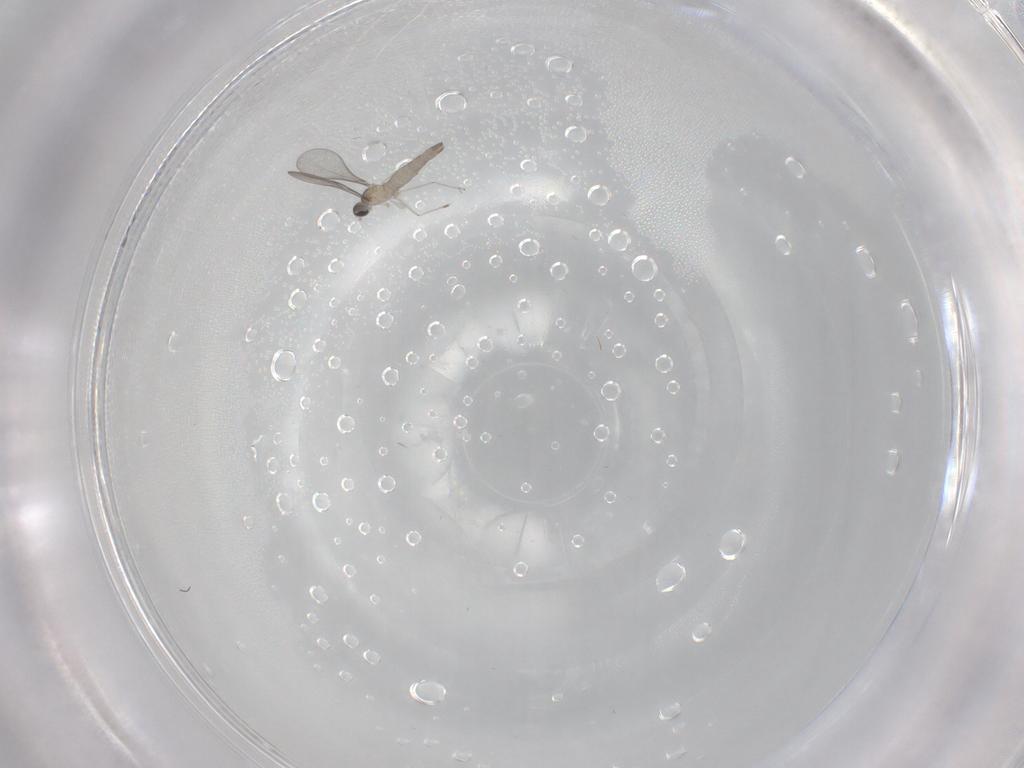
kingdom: Animalia
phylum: Arthropoda
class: Insecta
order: Diptera
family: Cecidomyiidae
